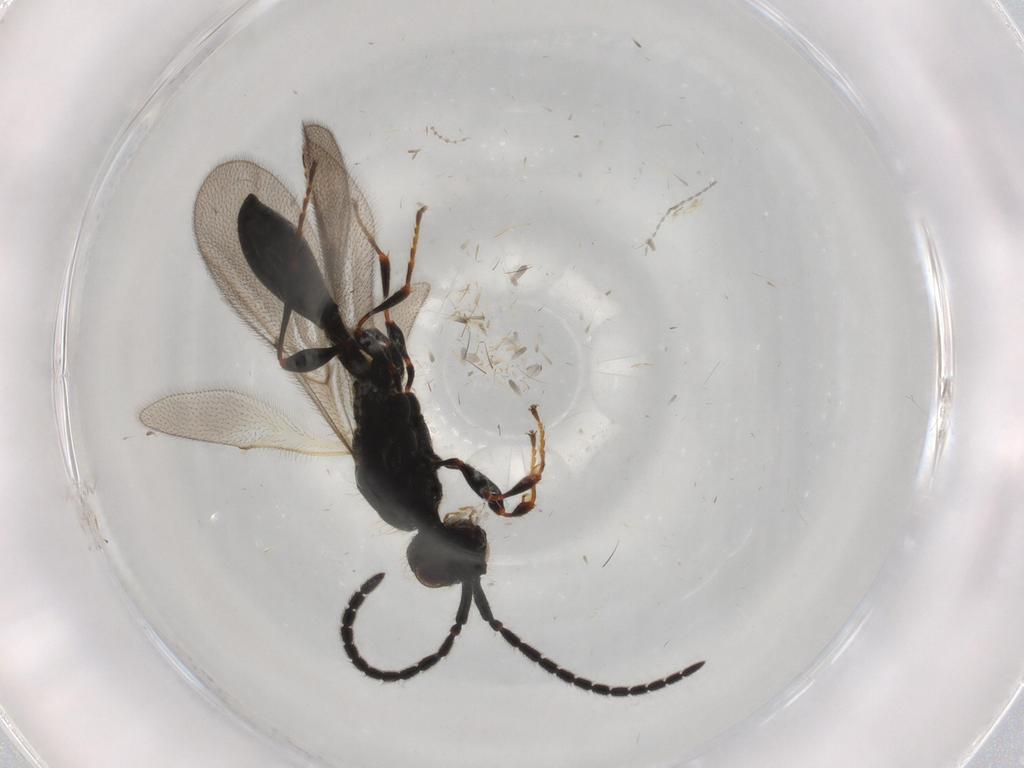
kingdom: Animalia
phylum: Arthropoda
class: Insecta
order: Hymenoptera
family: Diapriidae
